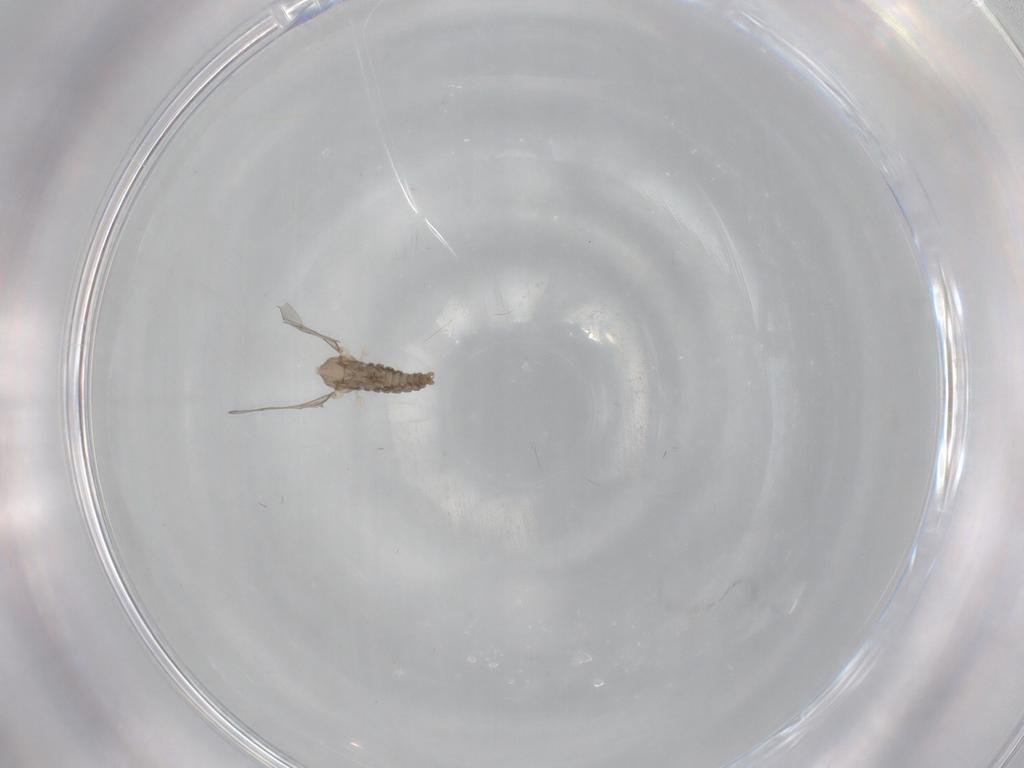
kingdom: Animalia
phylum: Arthropoda
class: Insecta
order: Diptera
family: Cecidomyiidae
